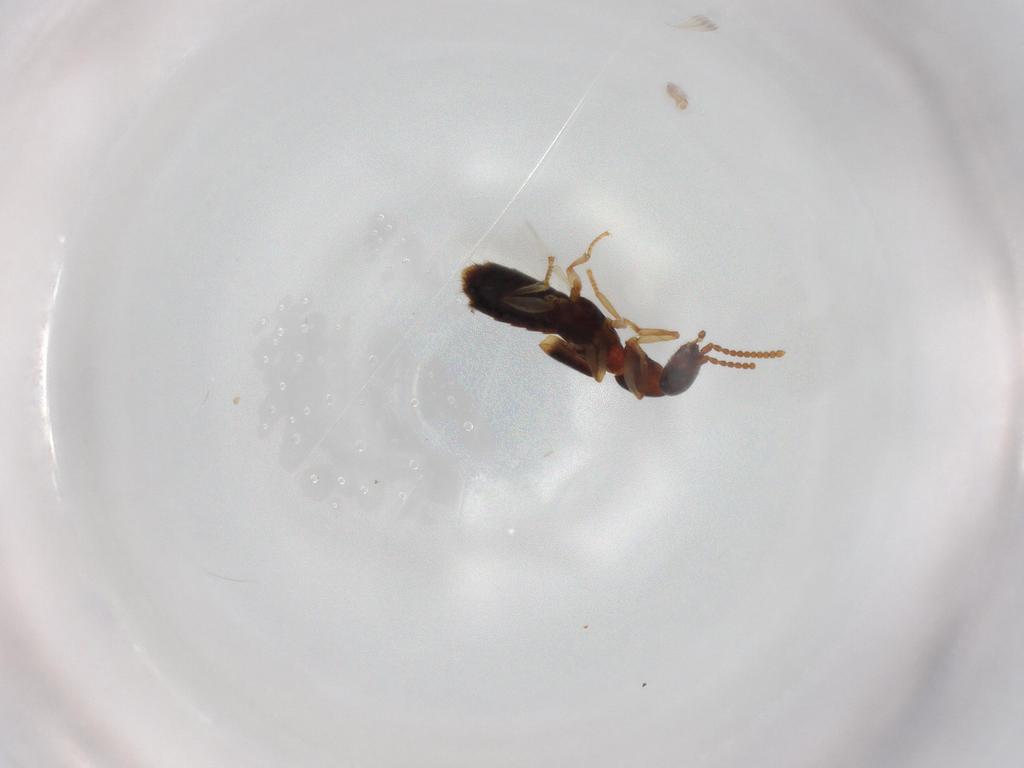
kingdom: Animalia
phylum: Arthropoda
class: Insecta
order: Coleoptera
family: Staphylinidae
